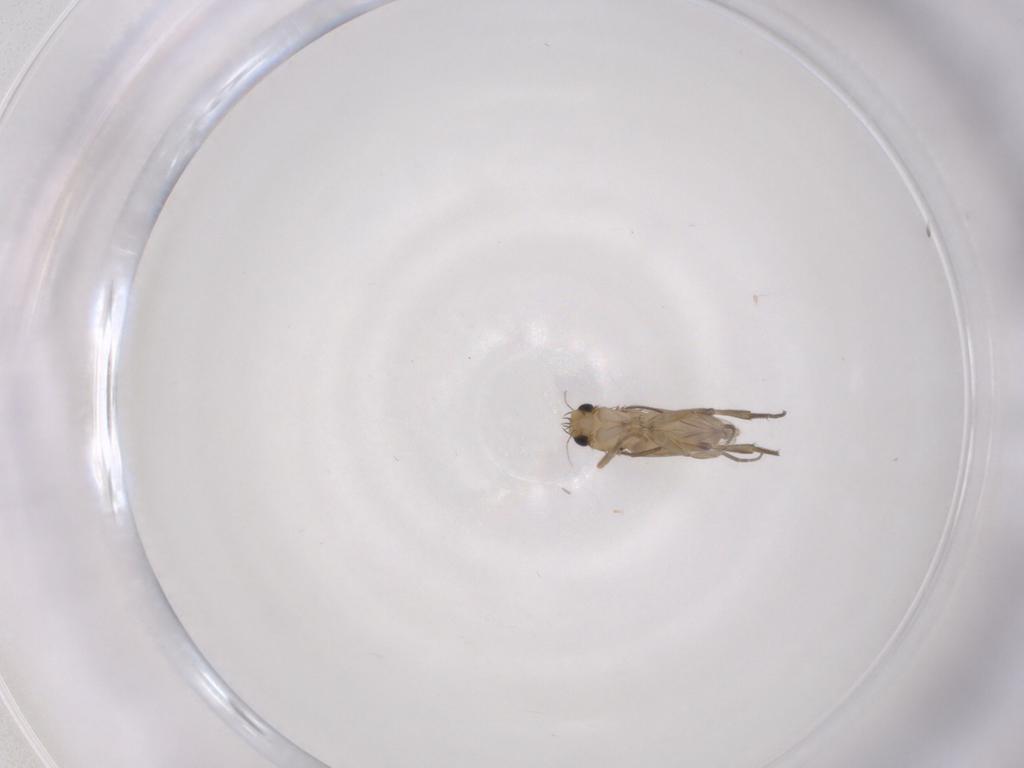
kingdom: Animalia
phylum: Arthropoda
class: Insecta
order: Diptera
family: Phoridae
